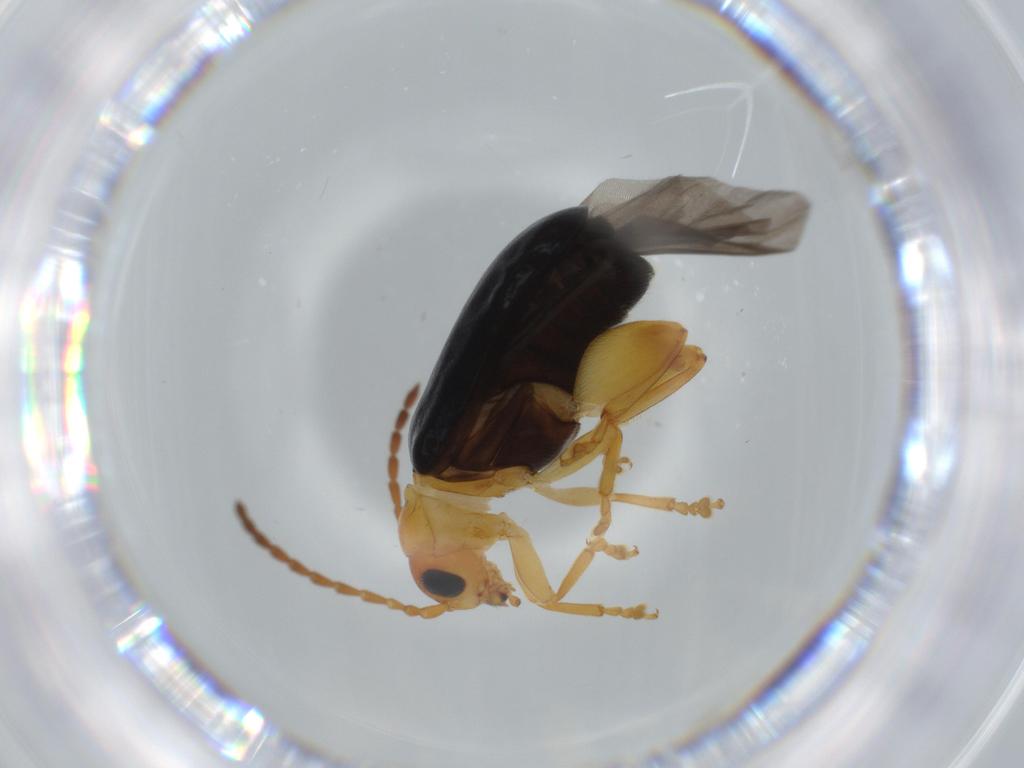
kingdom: Animalia
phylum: Arthropoda
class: Insecta
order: Coleoptera
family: Chrysomelidae
